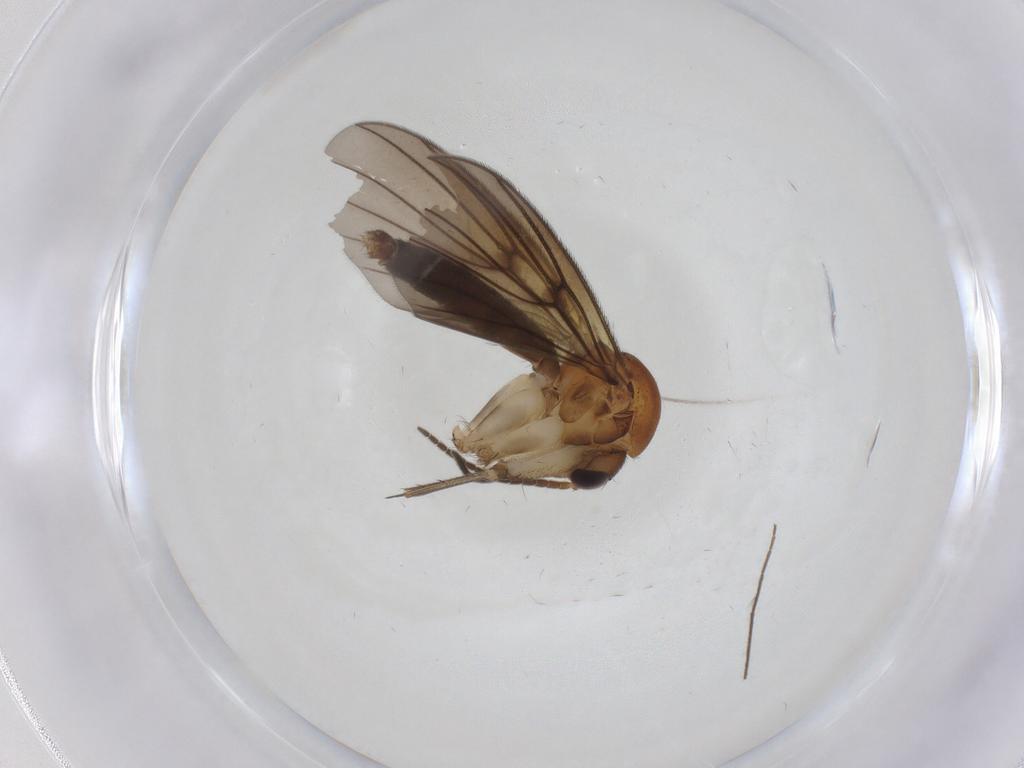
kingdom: Animalia
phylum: Arthropoda
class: Insecta
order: Diptera
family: Mycetophilidae
